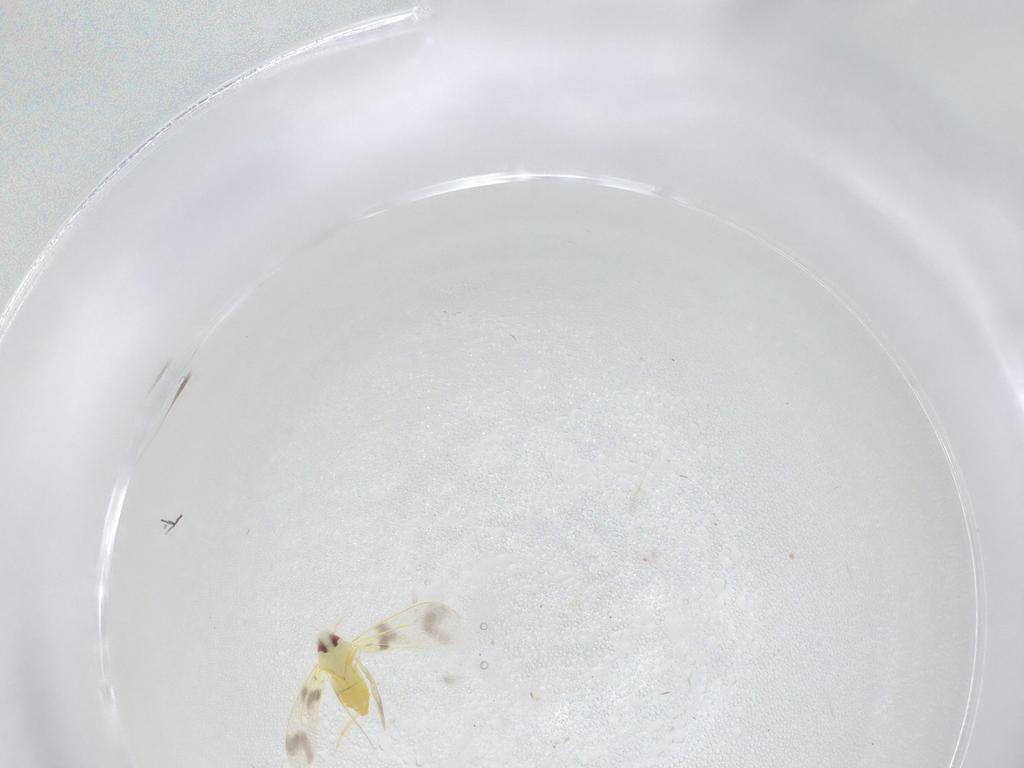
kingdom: Animalia
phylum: Arthropoda
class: Insecta
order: Hemiptera
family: Aleyrodidae
